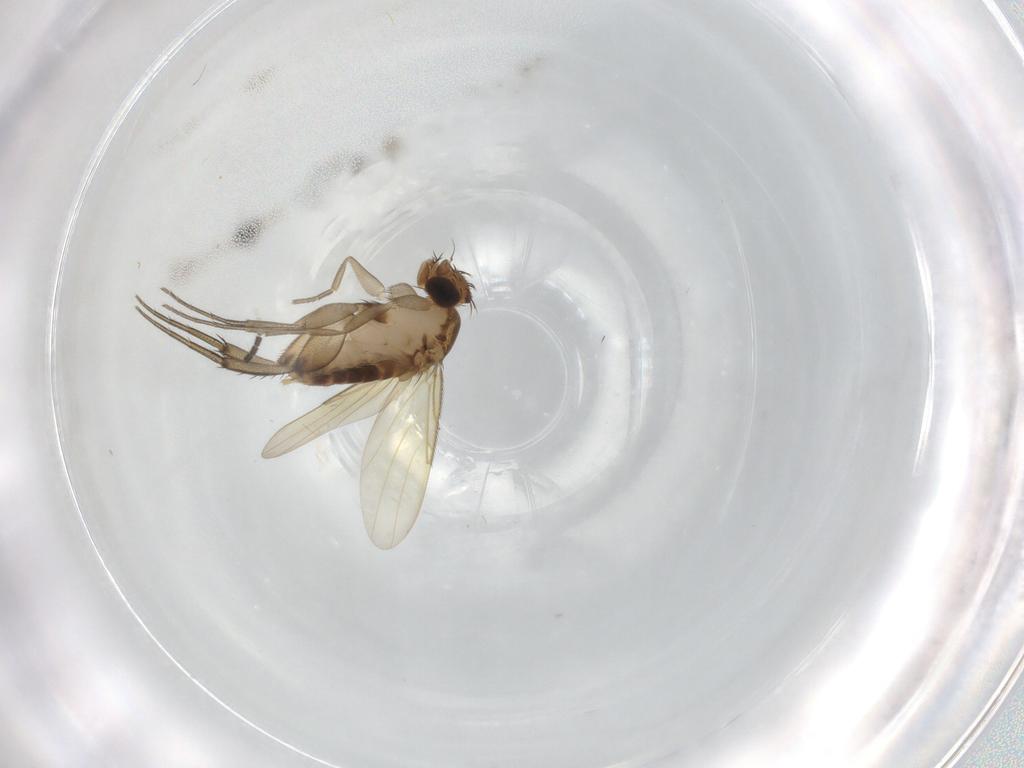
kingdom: Animalia
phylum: Arthropoda
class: Insecta
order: Diptera
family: Phoridae
